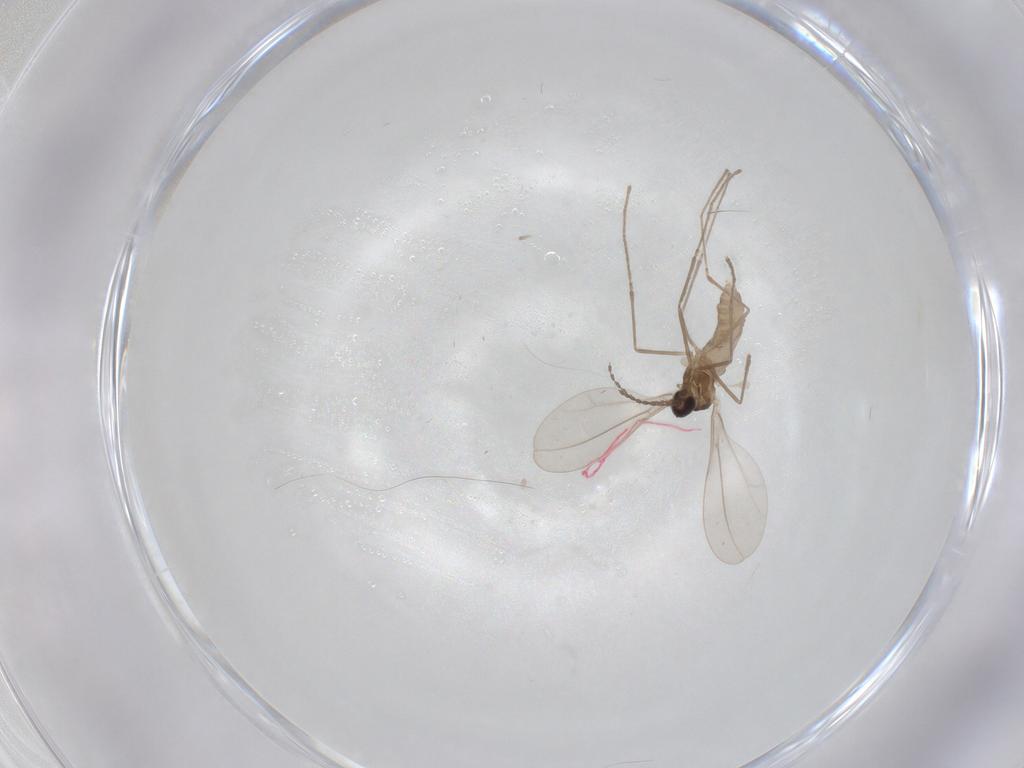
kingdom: Animalia
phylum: Arthropoda
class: Insecta
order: Diptera
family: Cecidomyiidae
